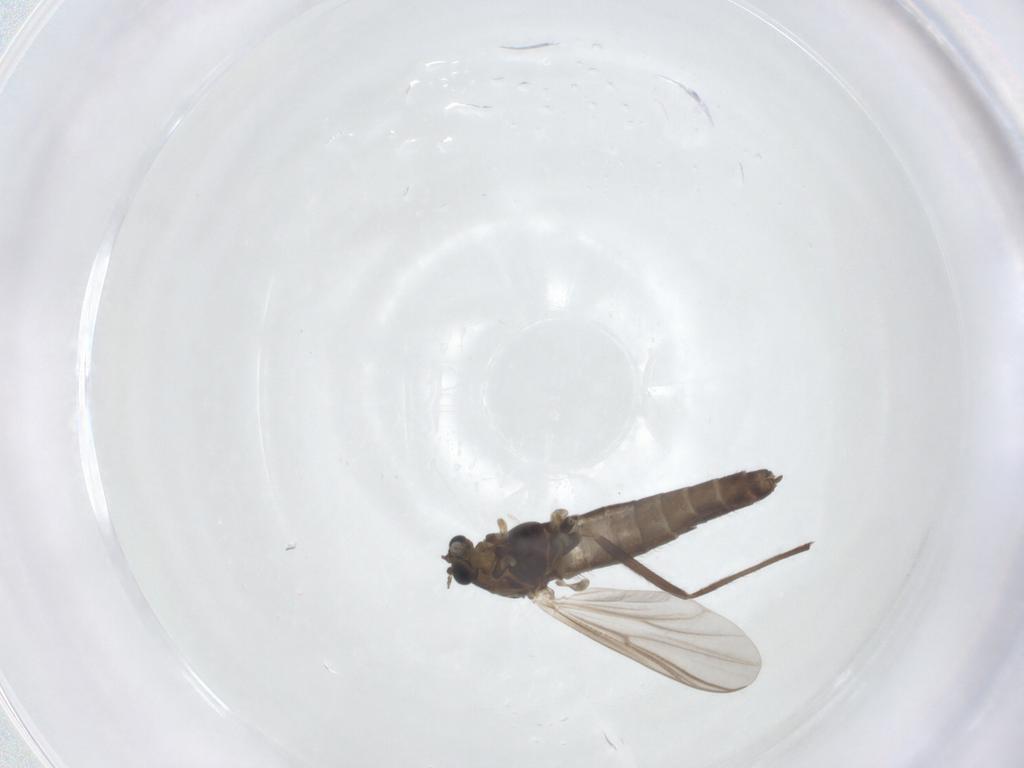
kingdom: Animalia
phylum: Arthropoda
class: Insecta
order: Diptera
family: Chironomidae
